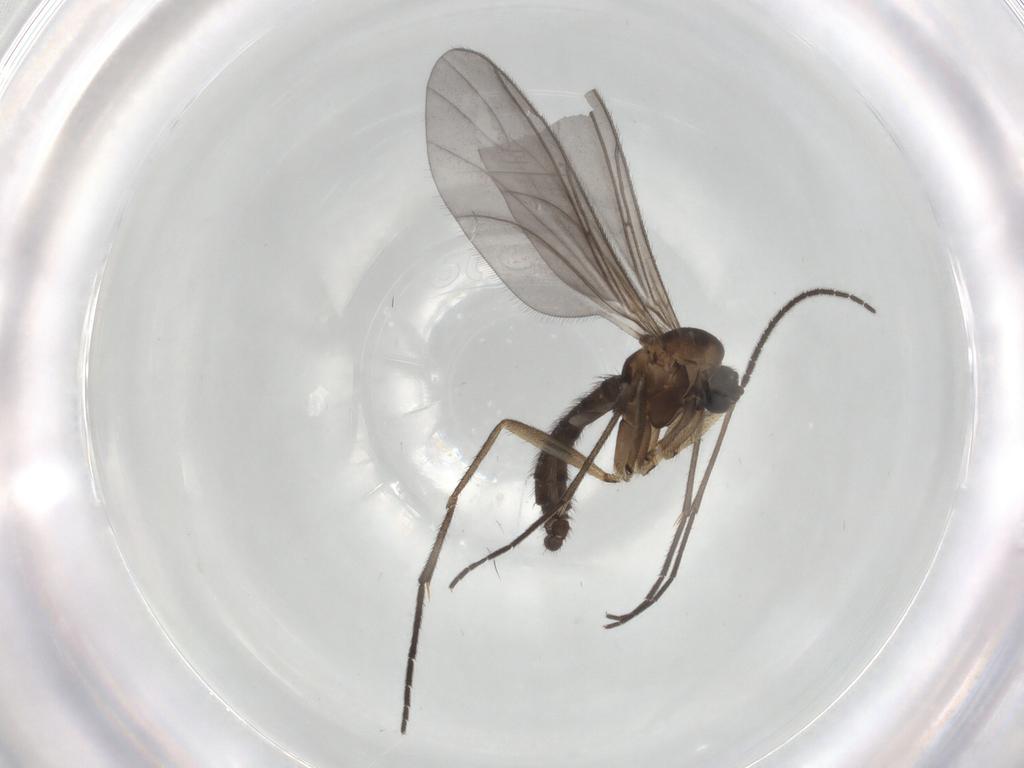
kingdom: Animalia
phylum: Arthropoda
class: Insecta
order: Diptera
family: Sciaridae
